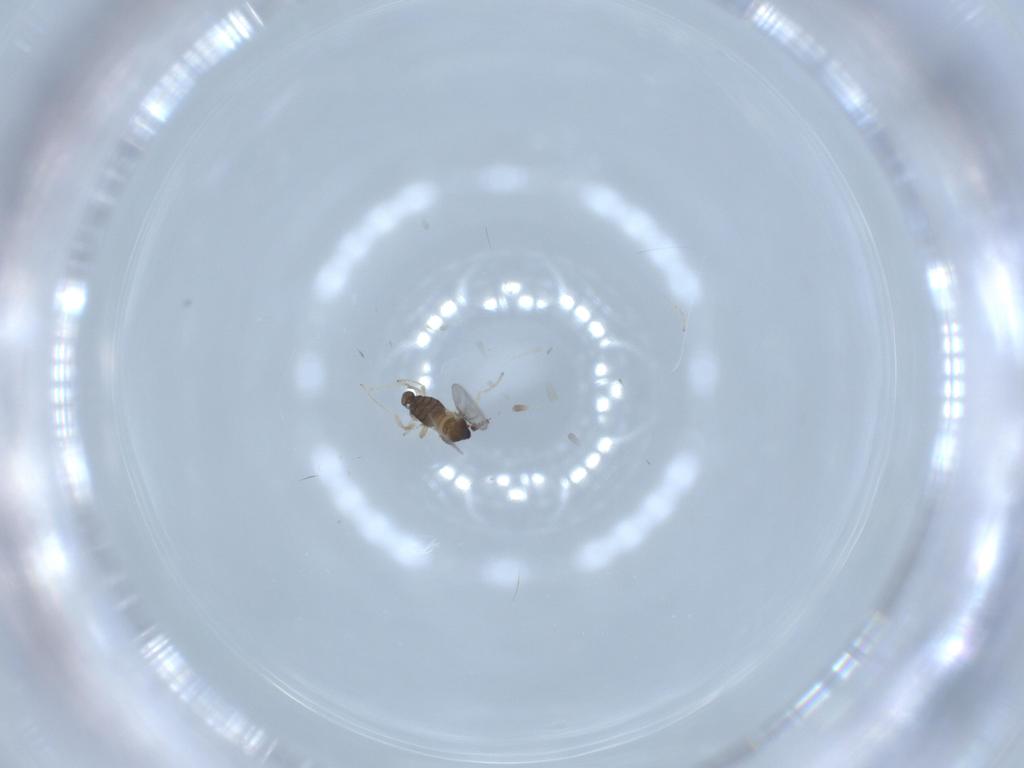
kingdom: Animalia
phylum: Arthropoda
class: Insecta
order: Diptera
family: Cecidomyiidae
